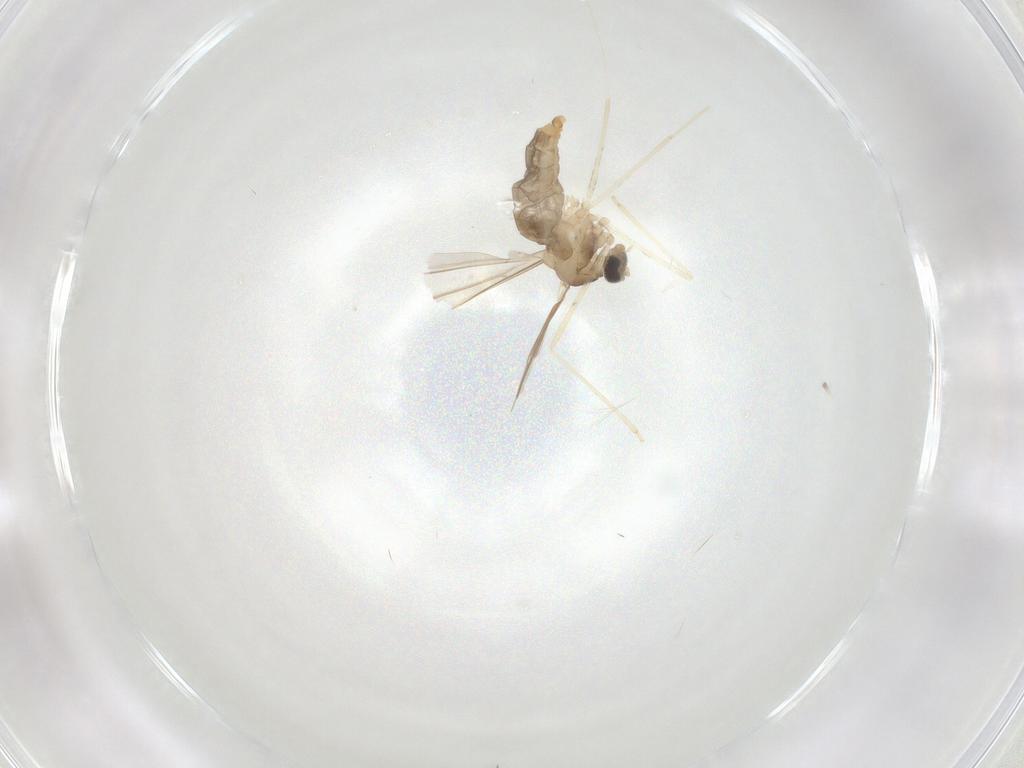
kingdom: Animalia
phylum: Arthropoda
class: Insecta
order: Diptera
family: Cecidomyiidae
